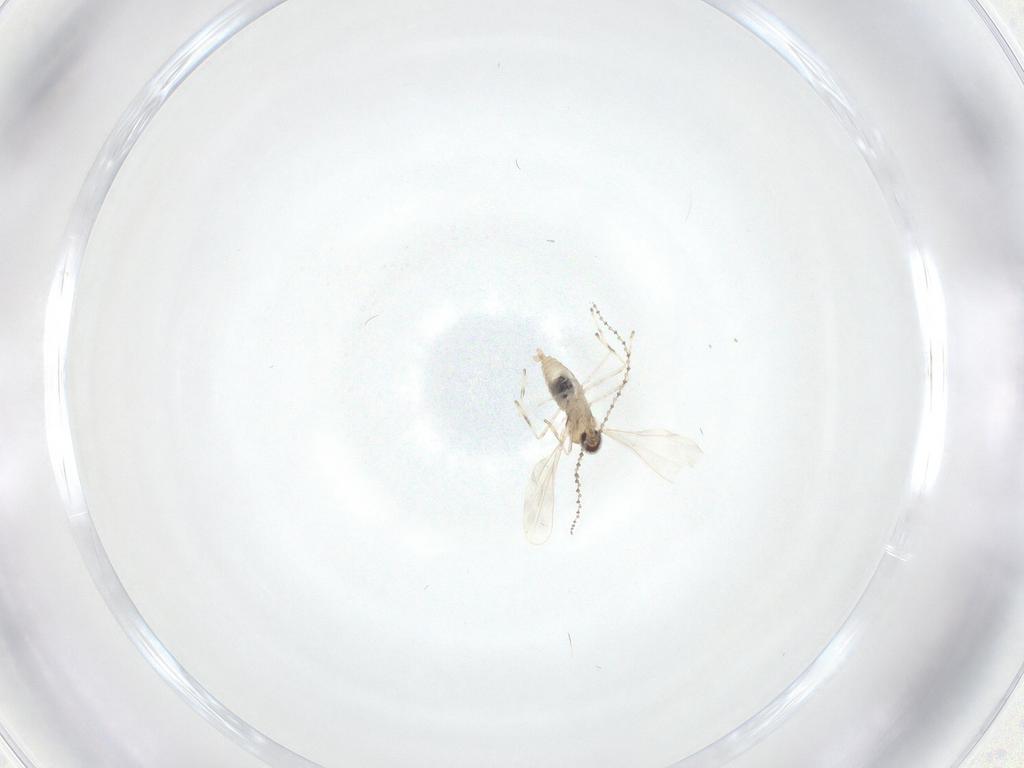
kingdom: Animalia
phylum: Arthropoda
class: Insecta
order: Diptera
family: Cecidomyiidae
